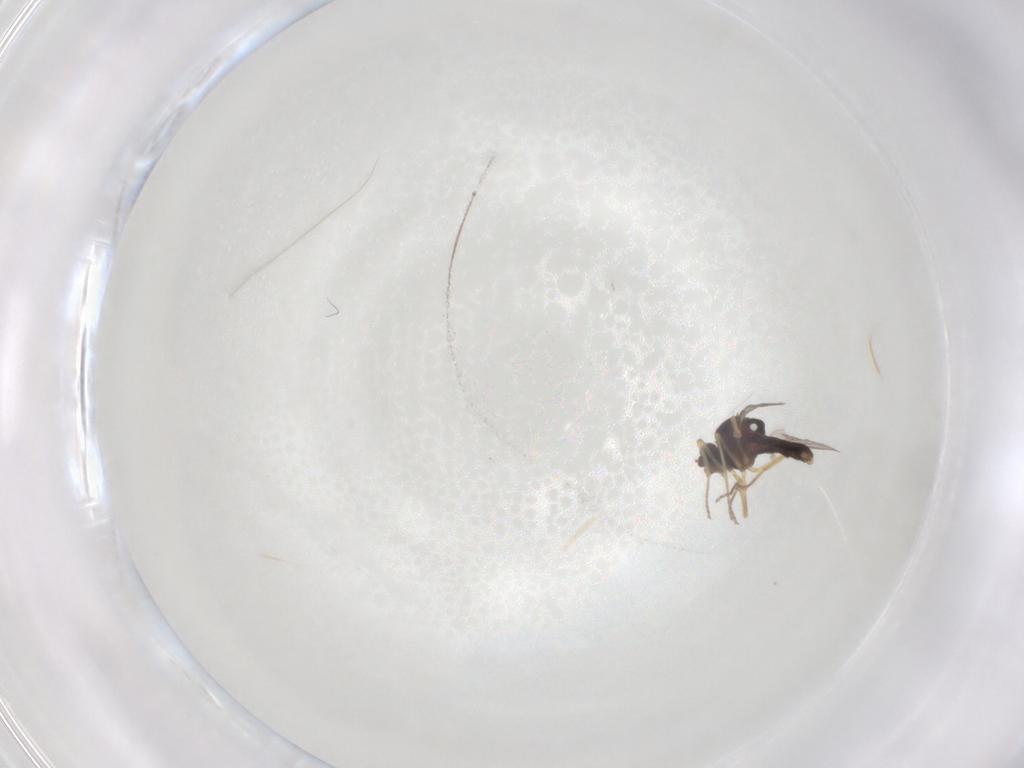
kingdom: Animalia
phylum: Arthropoda
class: Insecta
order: Diptera
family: Ceratopogonidae
